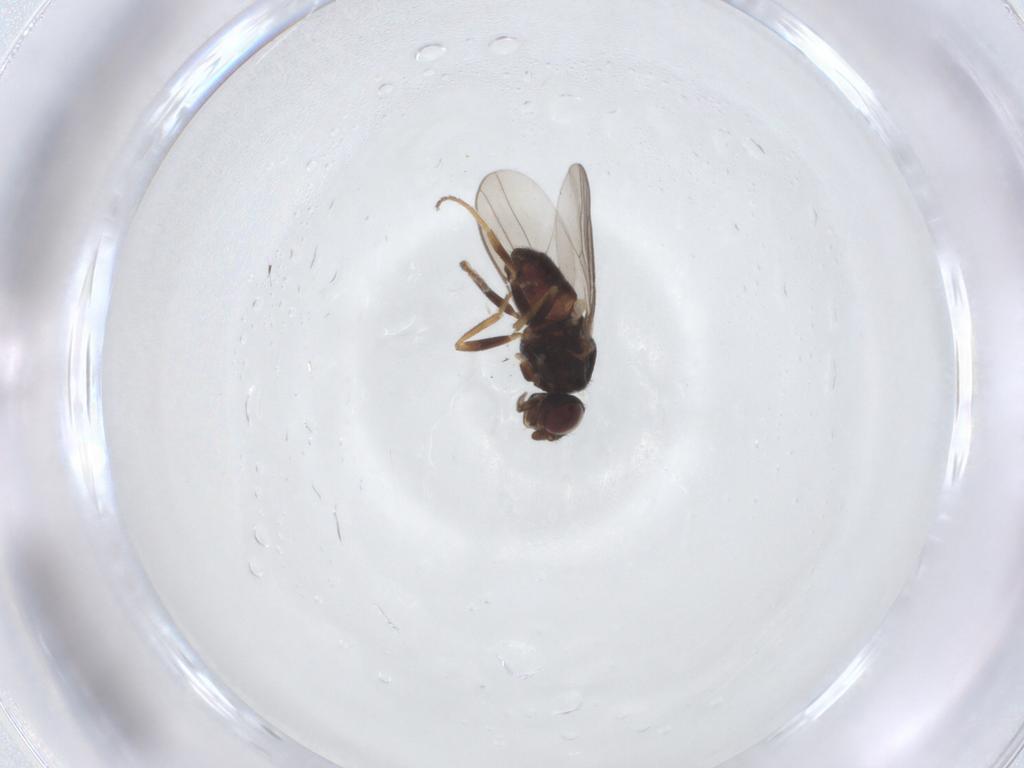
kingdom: Animalia
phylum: Arthropoda
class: Insecta
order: Diptera
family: Chloropidae
